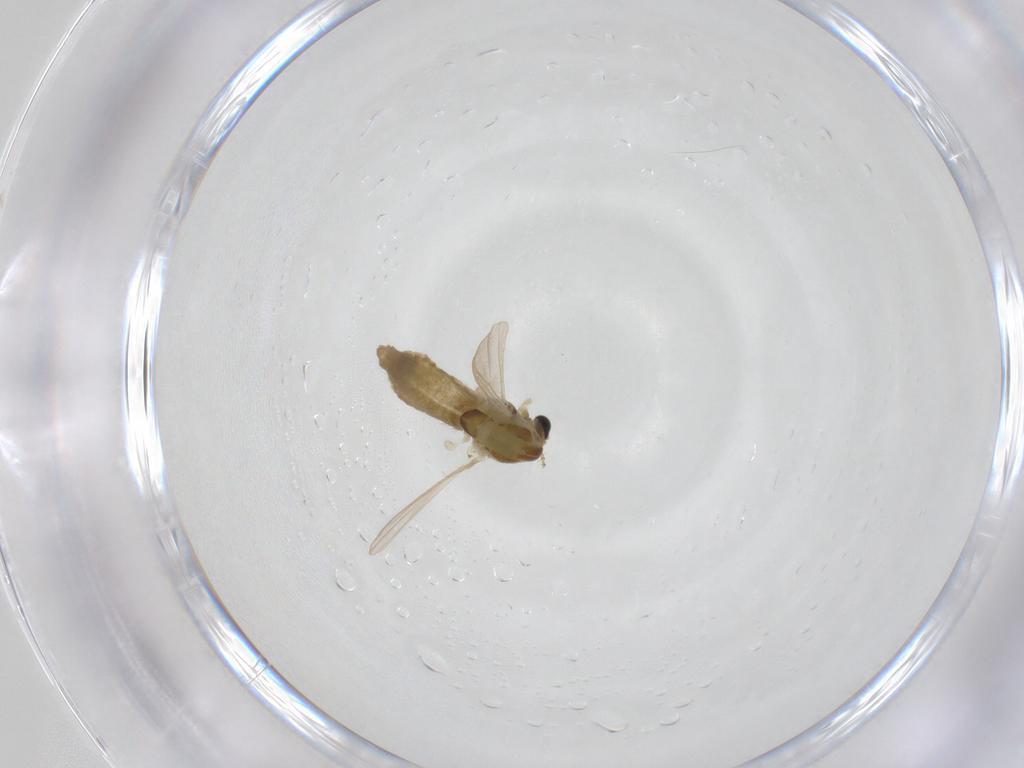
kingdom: Animalia
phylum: Arthropoda
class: Insecta
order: Diptera
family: Chironomidae
